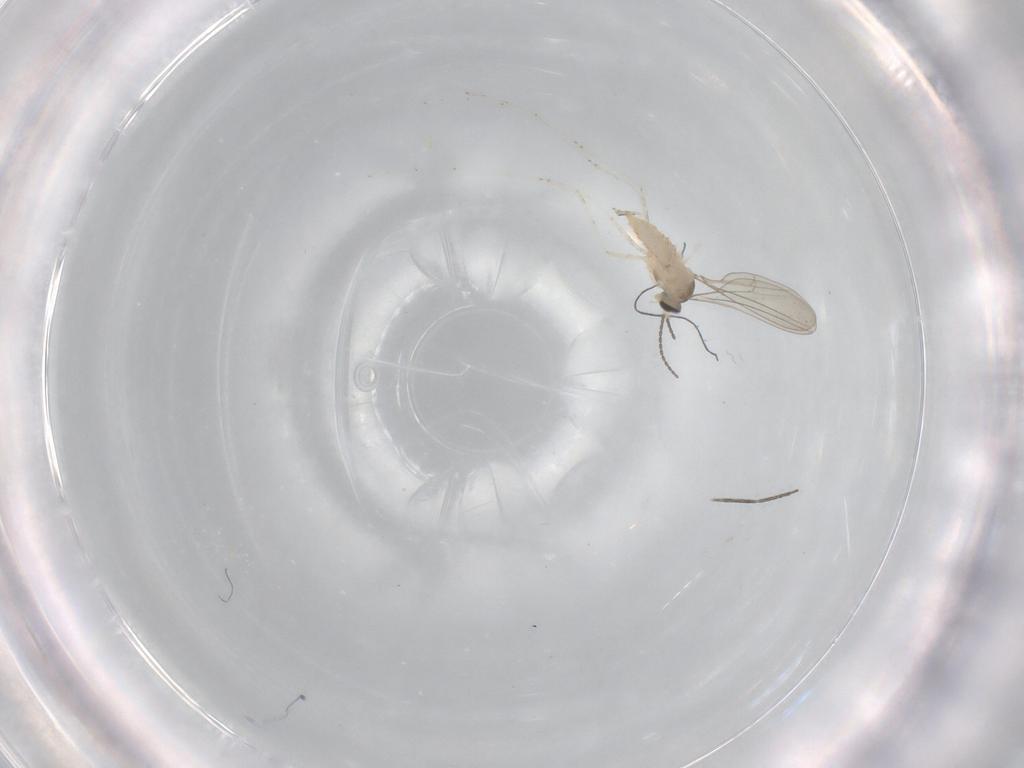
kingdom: Animalia
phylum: Arthropoda
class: Insecta
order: Diptera
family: Cecidomyiidae
